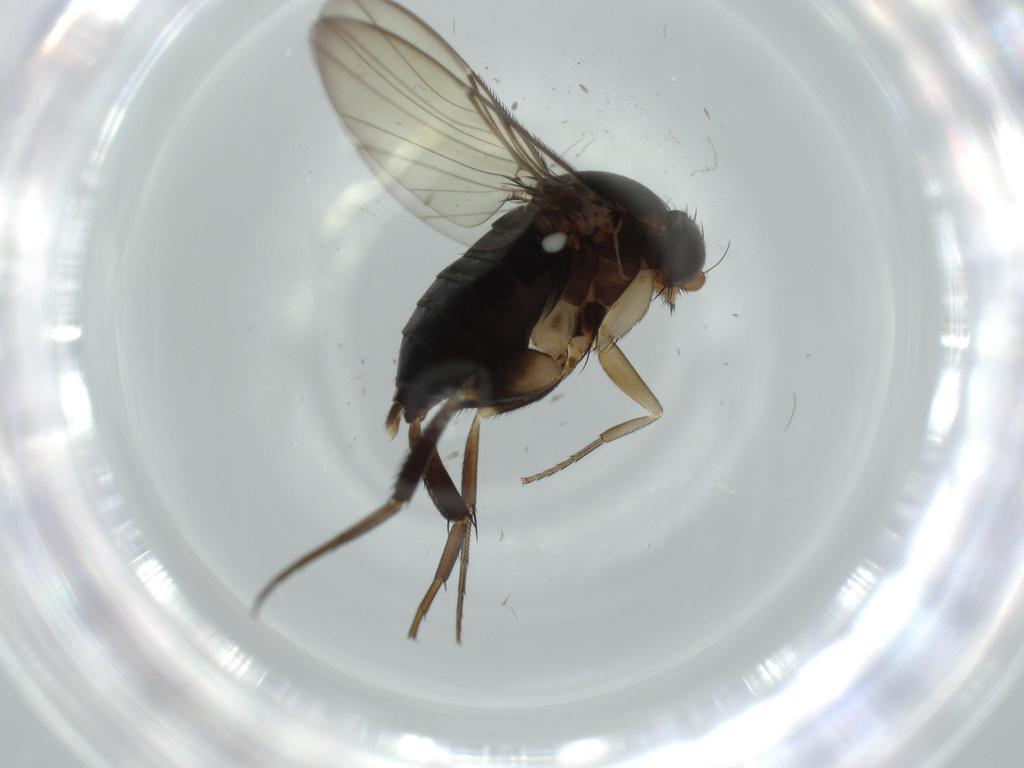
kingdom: Animalia
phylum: Arthropoda
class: Insecta
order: Diptera
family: Phoridae
